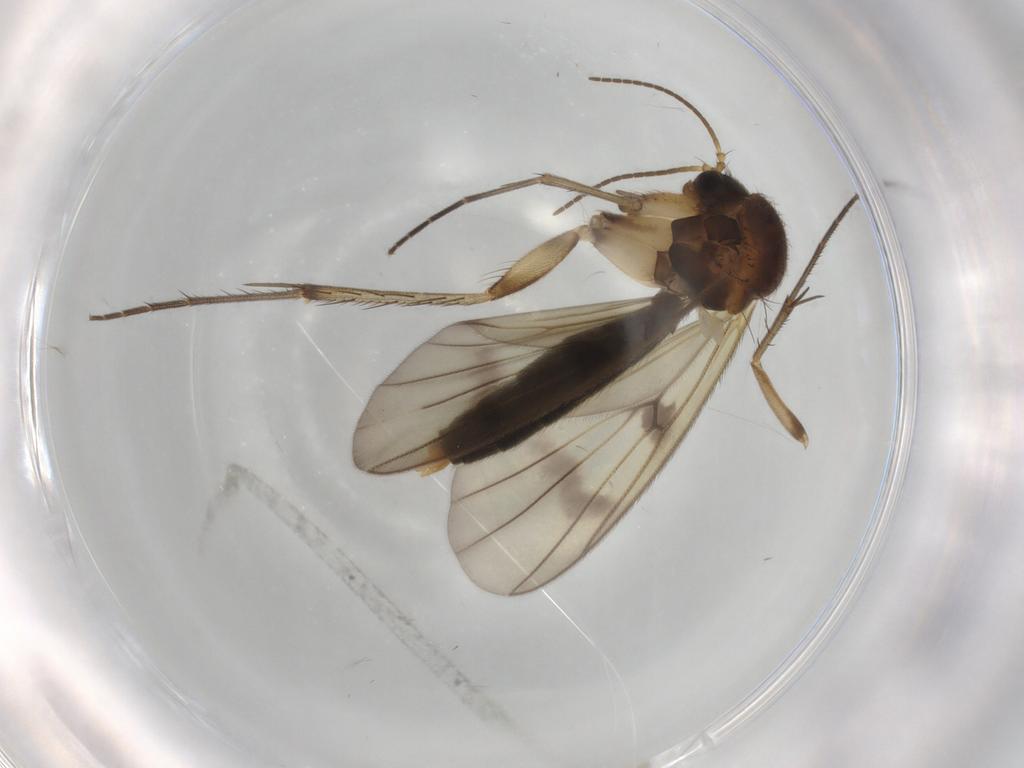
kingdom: Animalia
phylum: Arthropoda
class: Insecta
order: Diptera
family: Mycetophilidae
